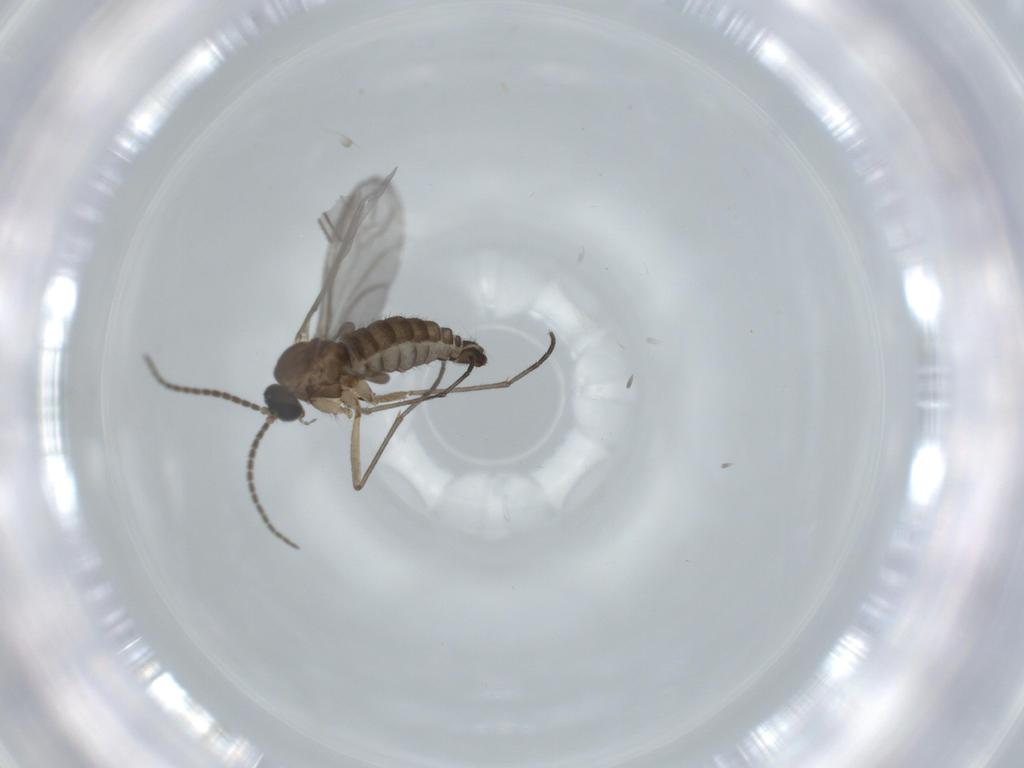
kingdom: Animalia
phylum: Arthropoda
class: Insecta
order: Diptera
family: Sciaridae
